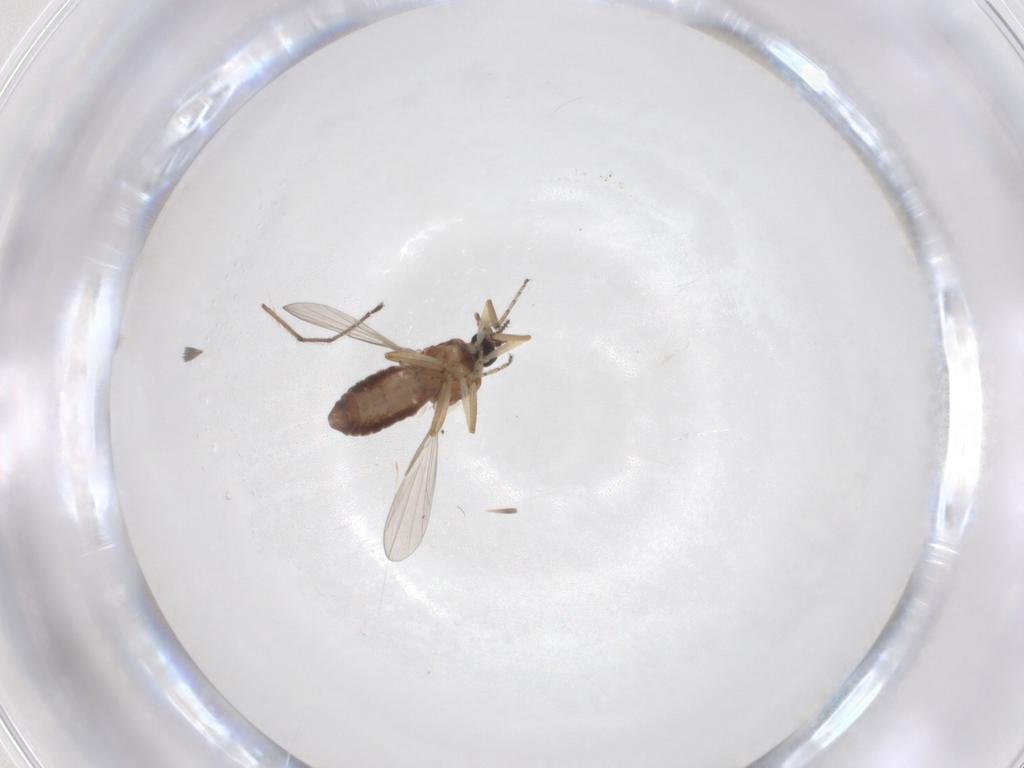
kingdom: Animalia
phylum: Arthropoda
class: Insecta
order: Diptera
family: Ceratopogonidae
